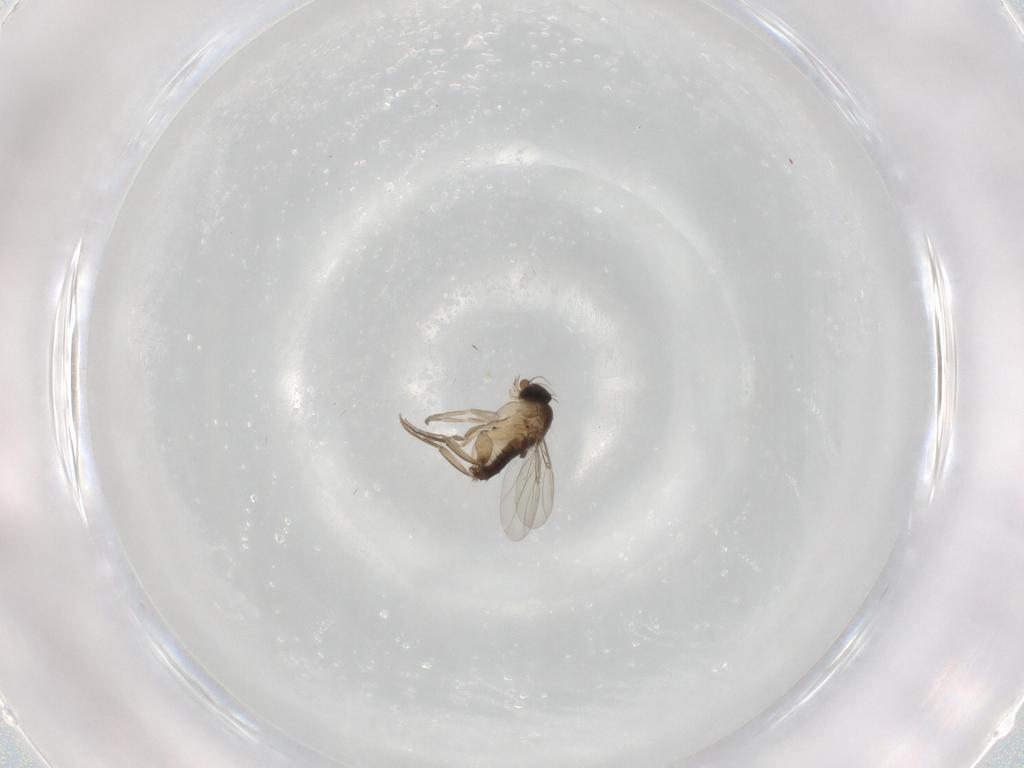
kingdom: Animalia
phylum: Arthropoda
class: Insecta
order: Diptera
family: Phoridae
